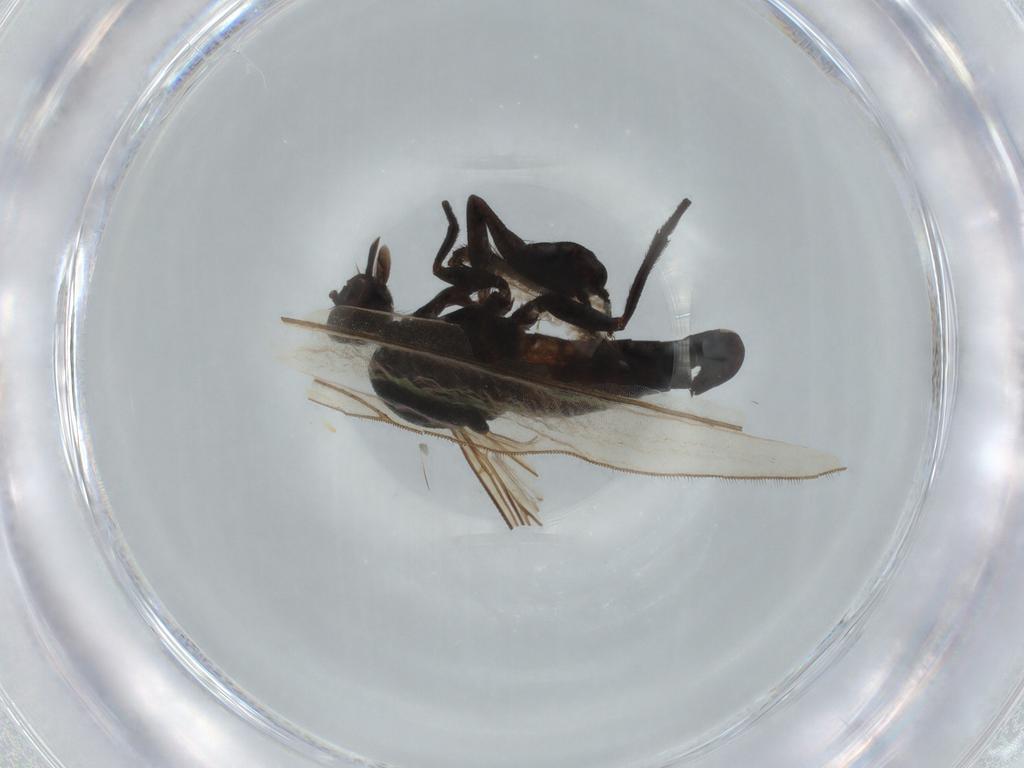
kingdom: Animalia
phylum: Arthropoda
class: Insecta
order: Diptera
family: Empididae
